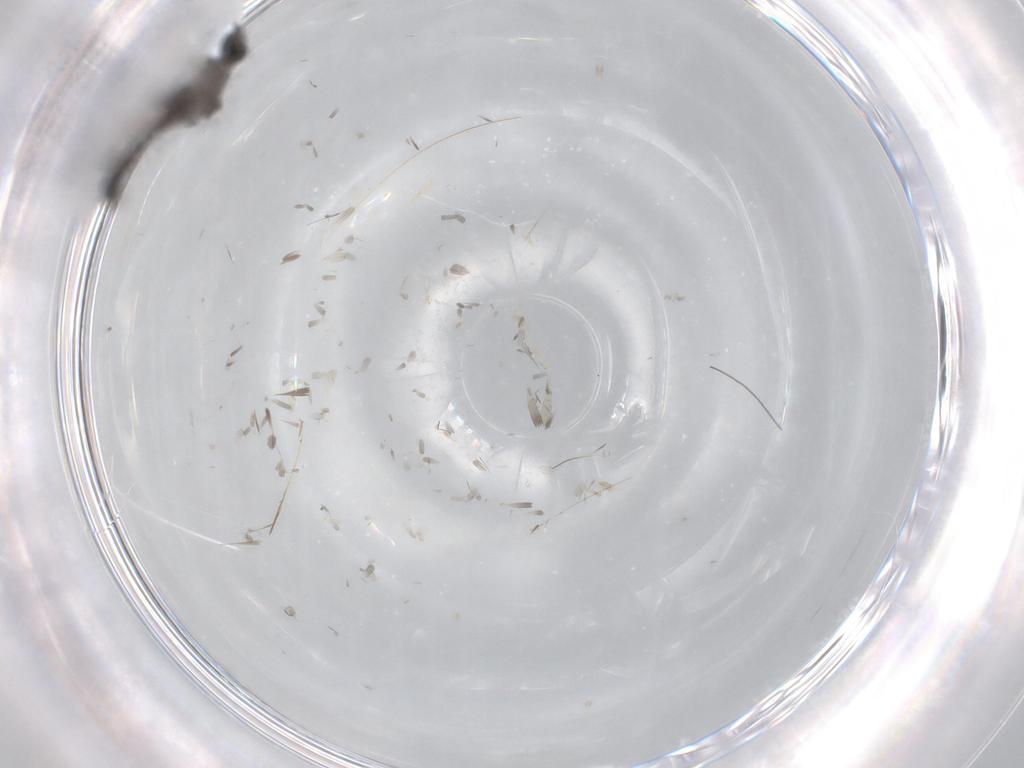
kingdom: Animalia
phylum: Arthropoda
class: Insecta
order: Diptera
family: Cecidomyiidae
